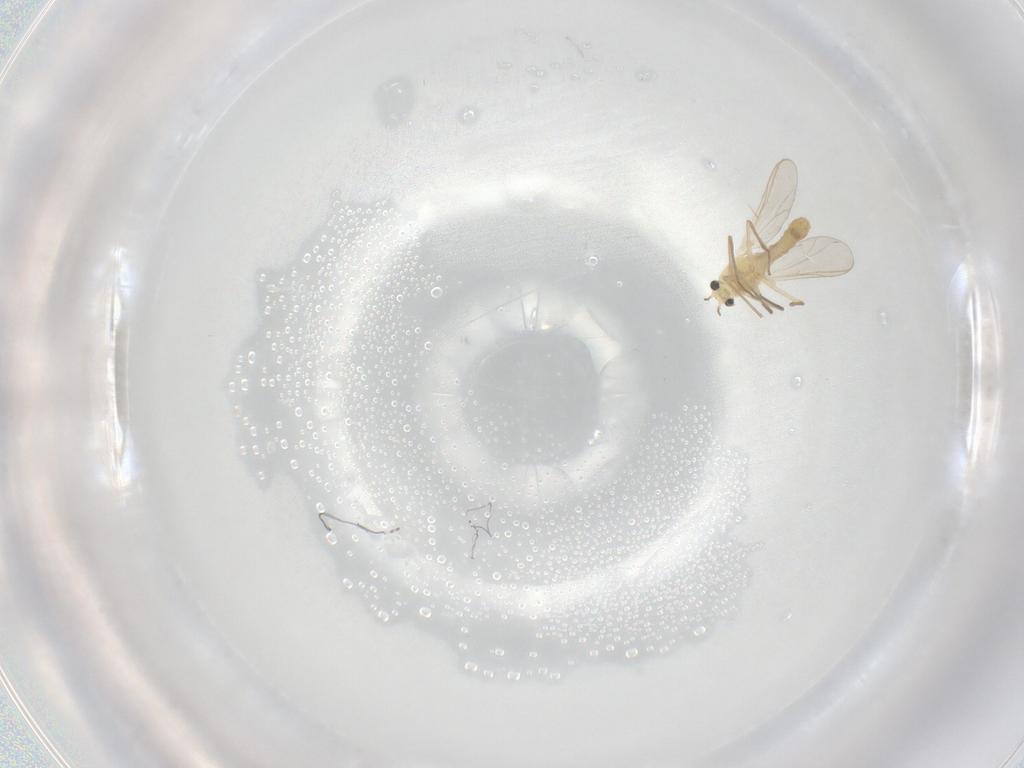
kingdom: Animalia
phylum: Arthropoda
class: Insecta
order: Diptera
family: Chironomidae
